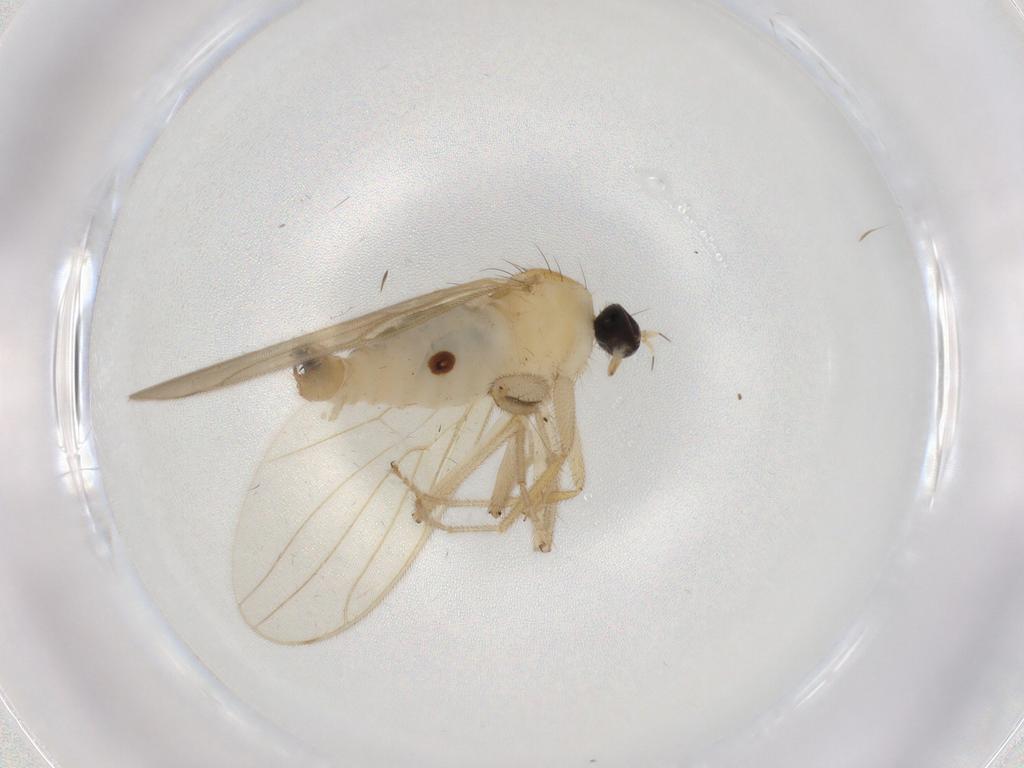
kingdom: Animalia
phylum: Arthropoda
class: Insecta
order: Diptera
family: Hybotidae
